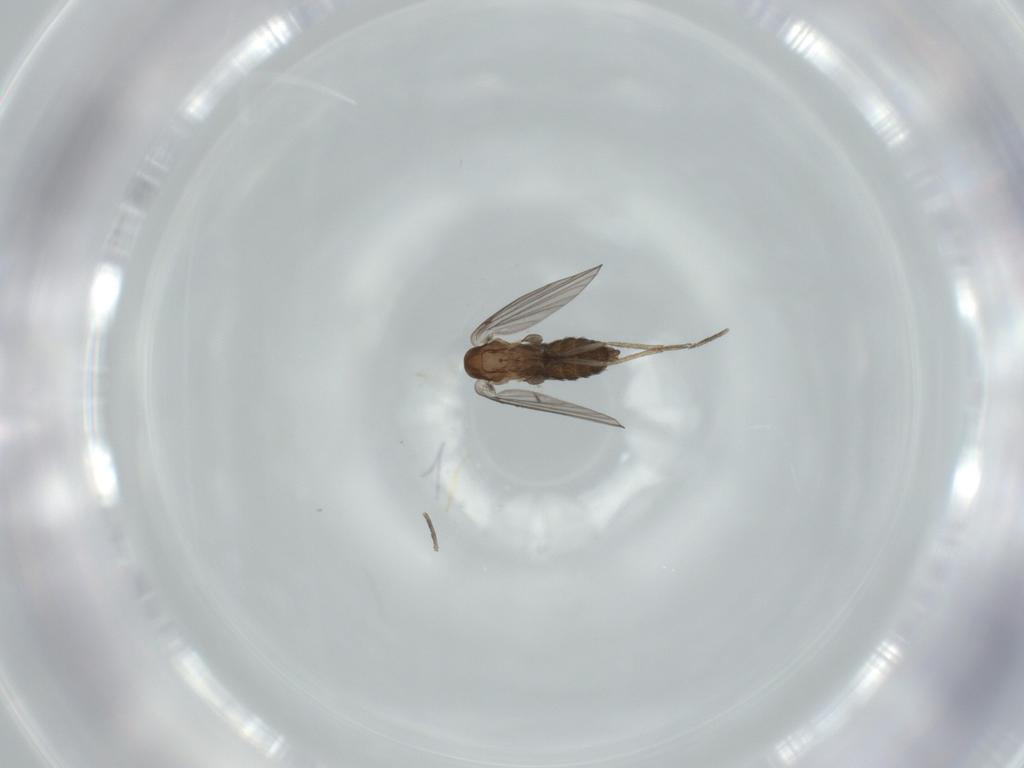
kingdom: Animalia
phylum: Arthropoda
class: Insecta
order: Diptera
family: Psychodidae
